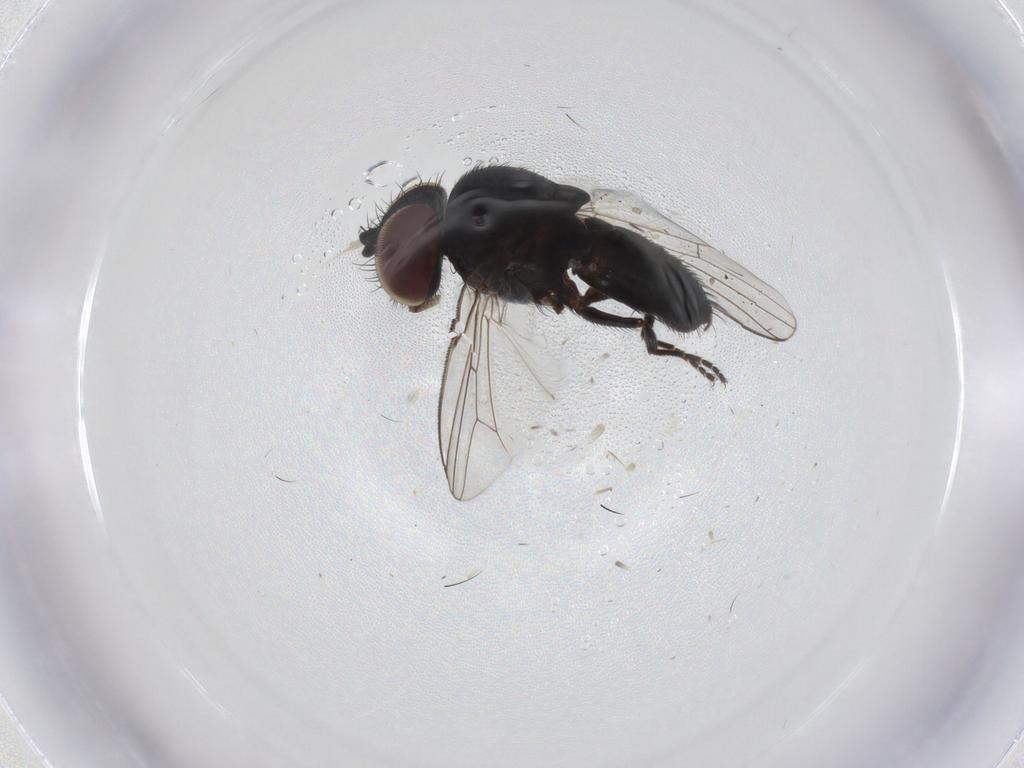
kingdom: Animalia
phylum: Arthropoda
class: Insecta
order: Diptera
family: Milichiidae
